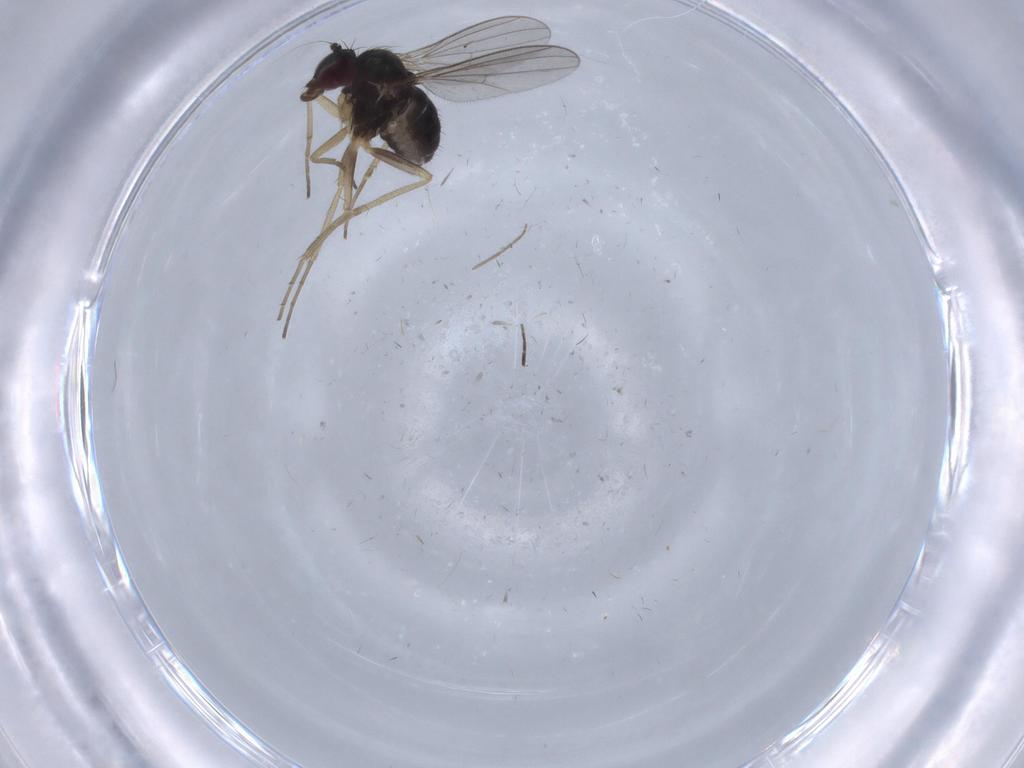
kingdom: Animalia
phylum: Arthropoda
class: Insecta
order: Diptera
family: Dolichopodidae
